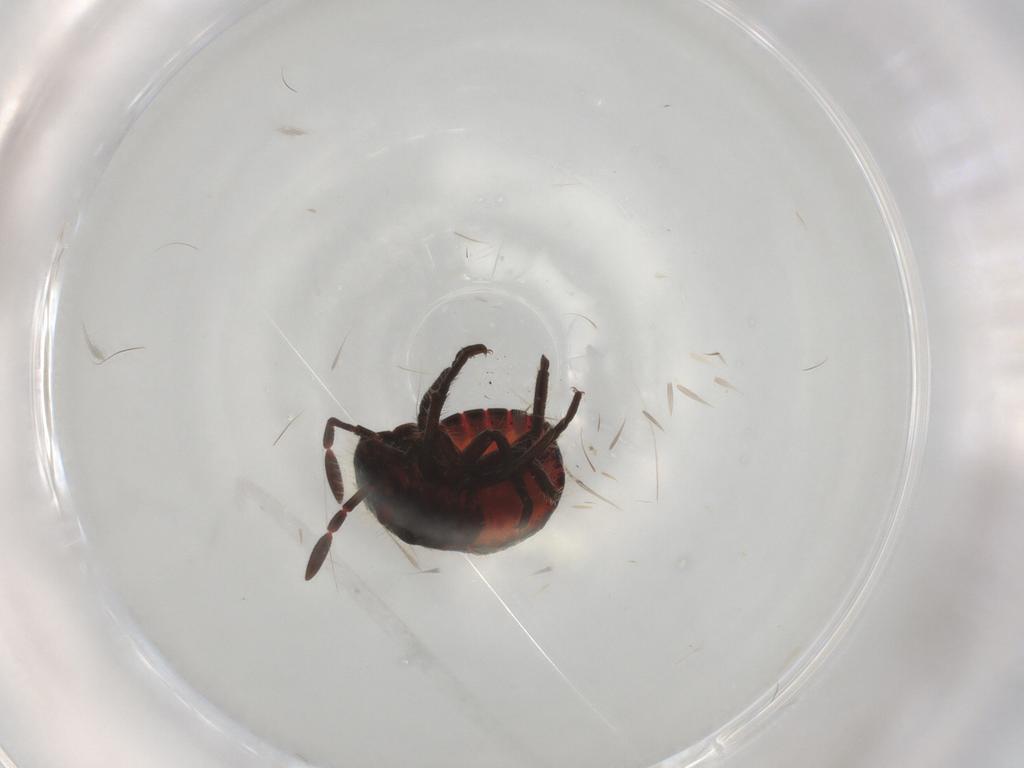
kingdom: Animalia
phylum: Arthropoda
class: Insecta
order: Hemiptera
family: Pentatomidae
